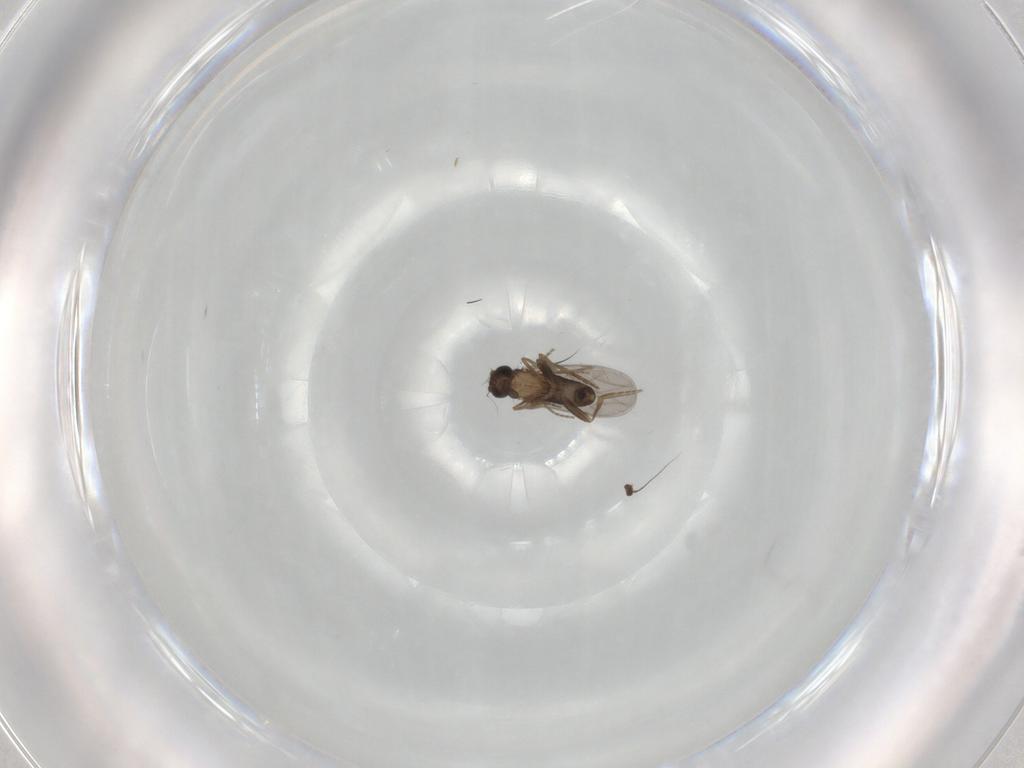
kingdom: Animalia
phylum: Arthropoda
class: Insecta
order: Diptera
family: Chironomidae
